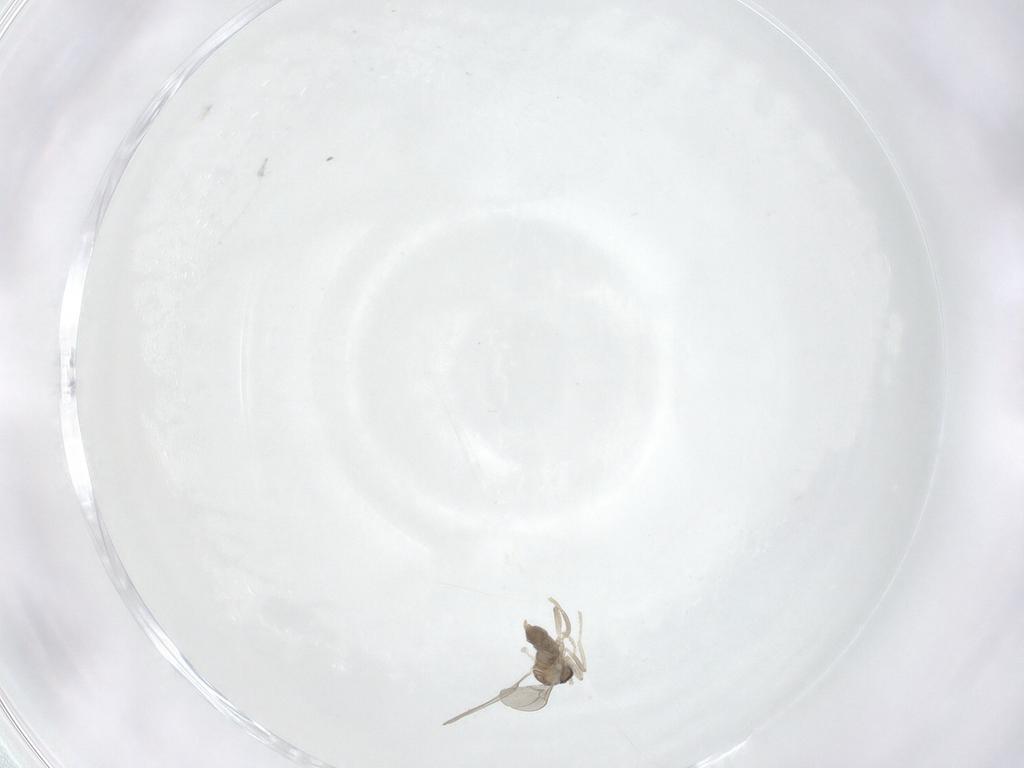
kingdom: Animalia
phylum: Arthropoda
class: Insecta
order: Diptera
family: Cecidomyiidae
